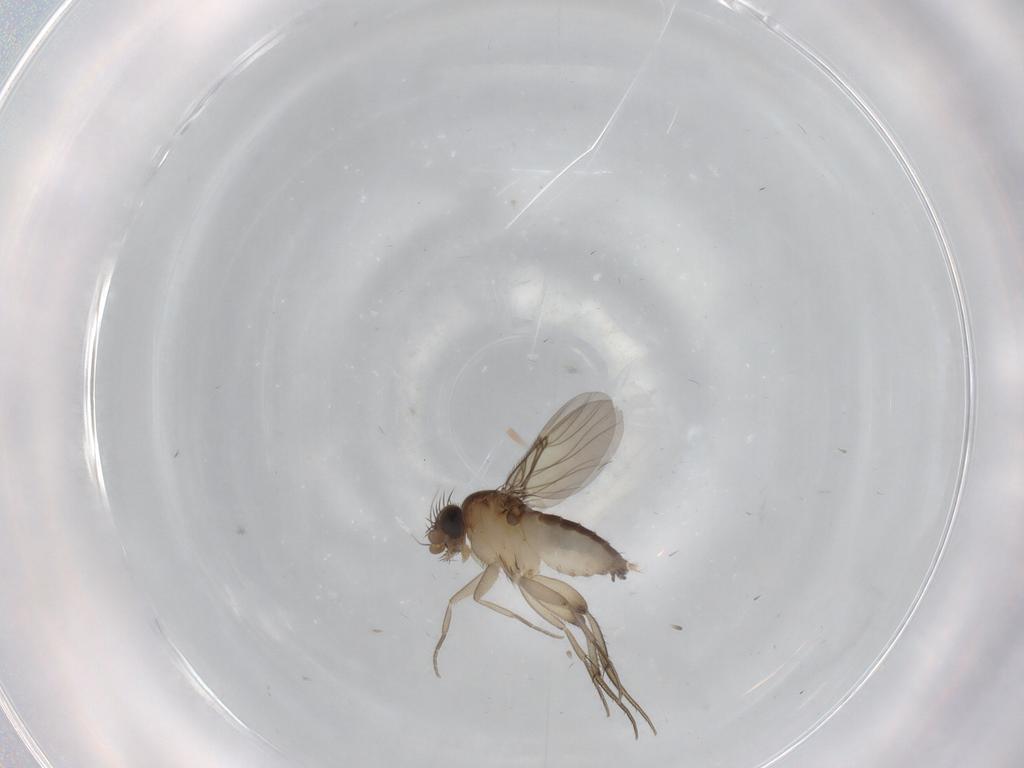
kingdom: Animalia
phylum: Arthropoda
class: Insecta
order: Diptera
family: Phoridae
